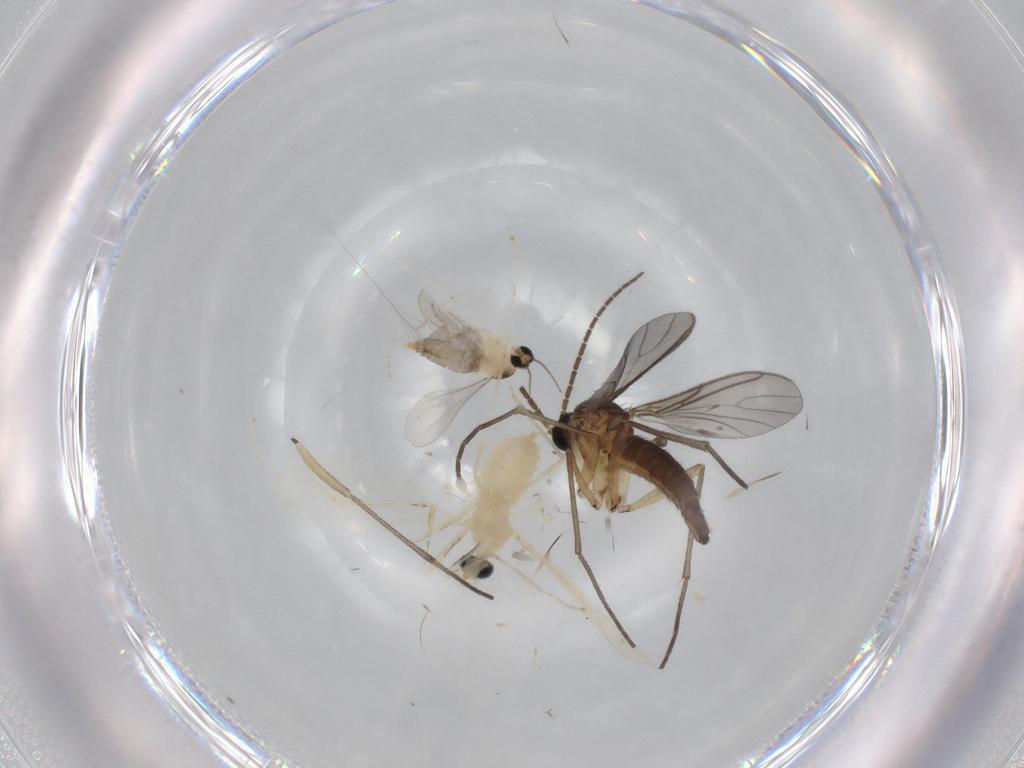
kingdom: Animalia
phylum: Arthropoda
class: Insecta
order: Diptera
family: Cecidomyiidae
